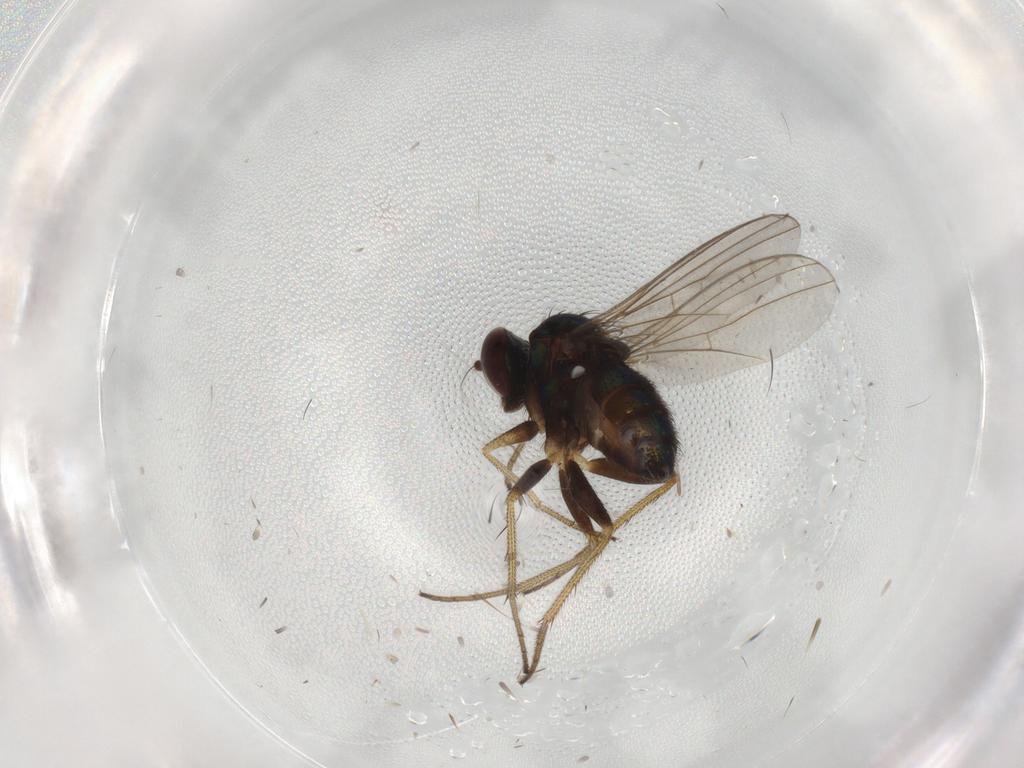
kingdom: Animalia
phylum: Arthropoda
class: Insecta
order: Diptera
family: Dolichopodidae
